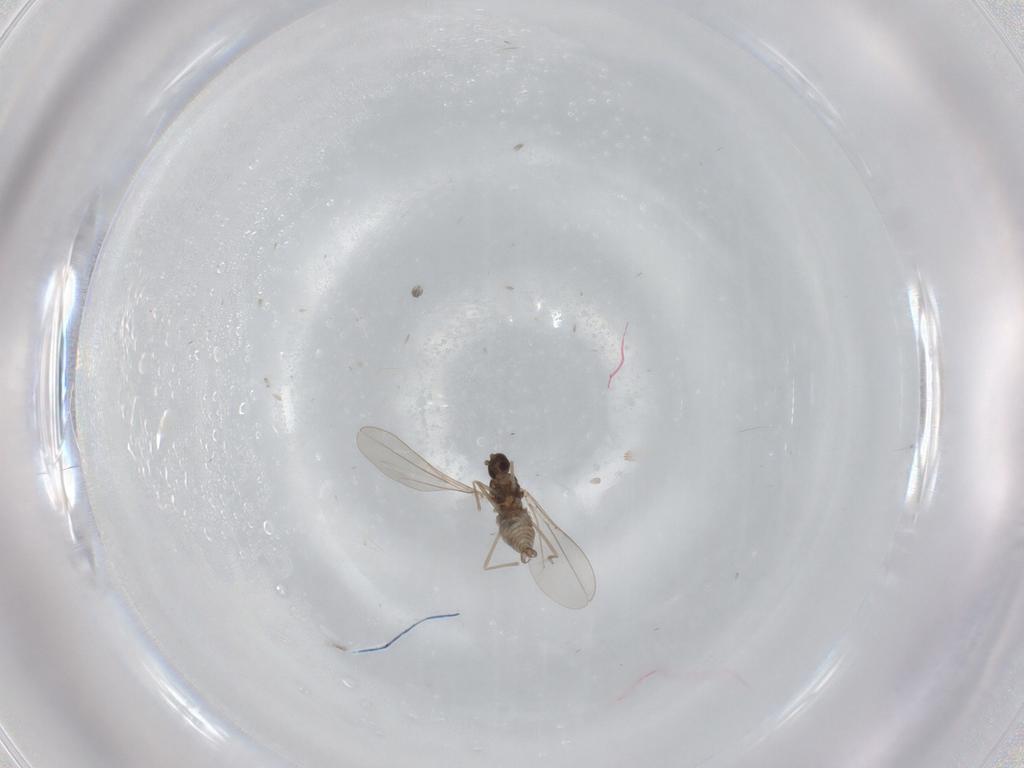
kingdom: Animalia
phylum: Arthropoda
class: Insecta
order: Diptera
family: Cecidomyiidae
